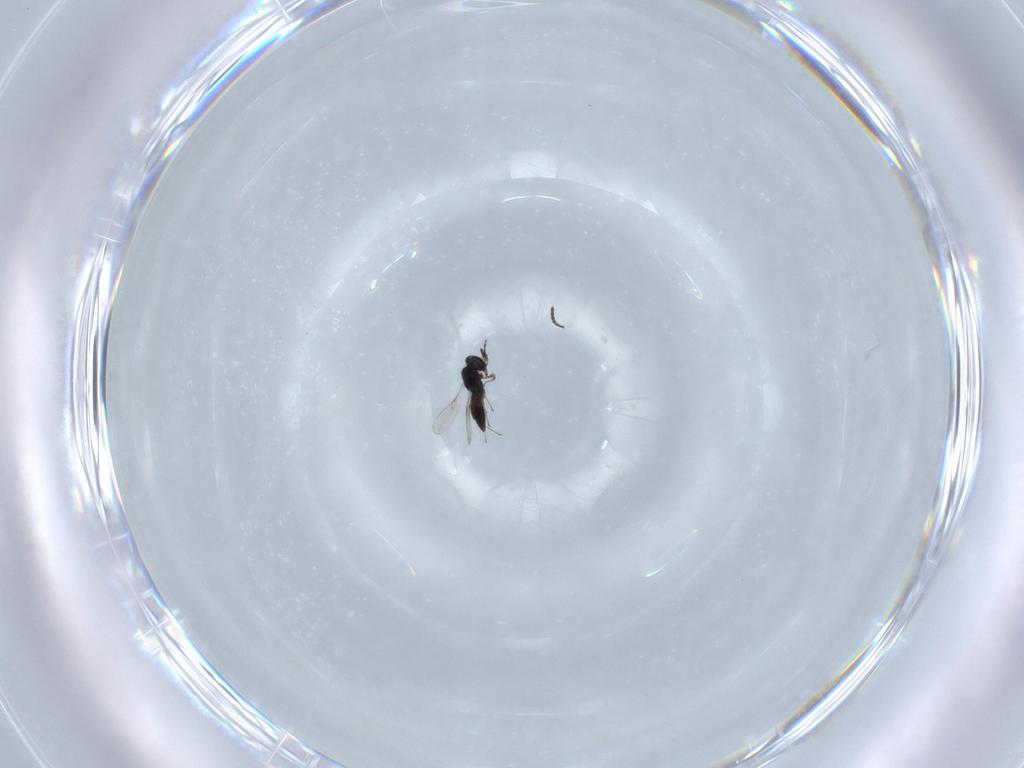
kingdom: Animalia
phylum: Arthropoda
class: Insecta
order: Hymenoptera
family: Scelionidae
